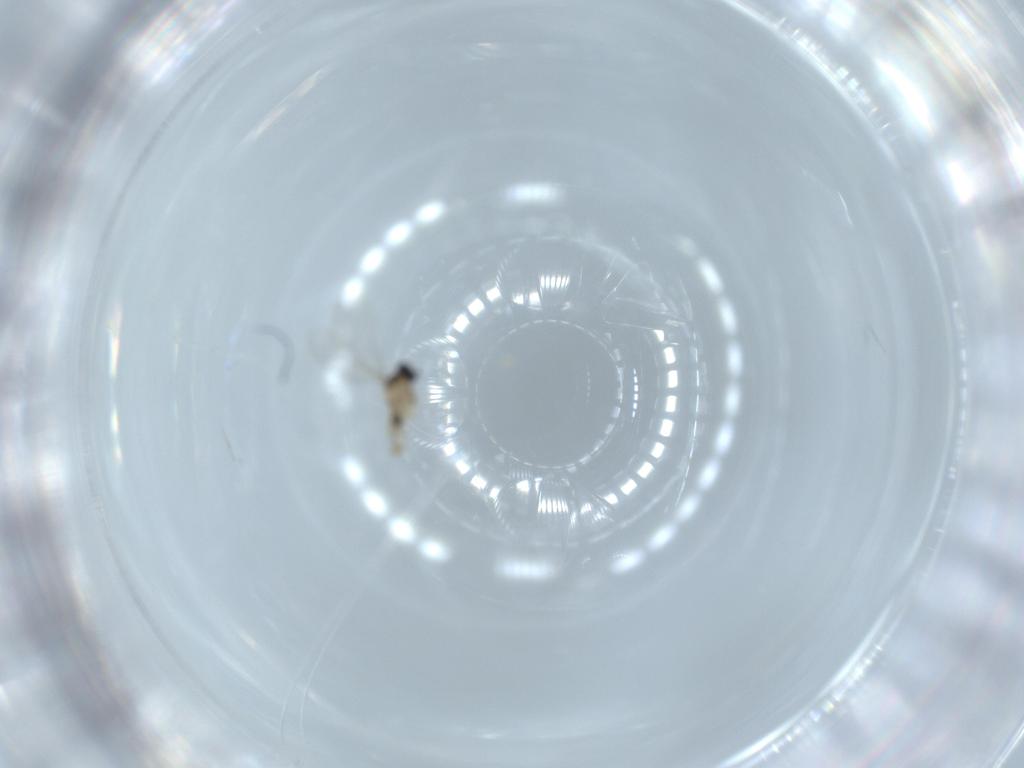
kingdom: Animalia
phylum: Arthropoda
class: Insecta
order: Diptera
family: Cecidomyiidae
